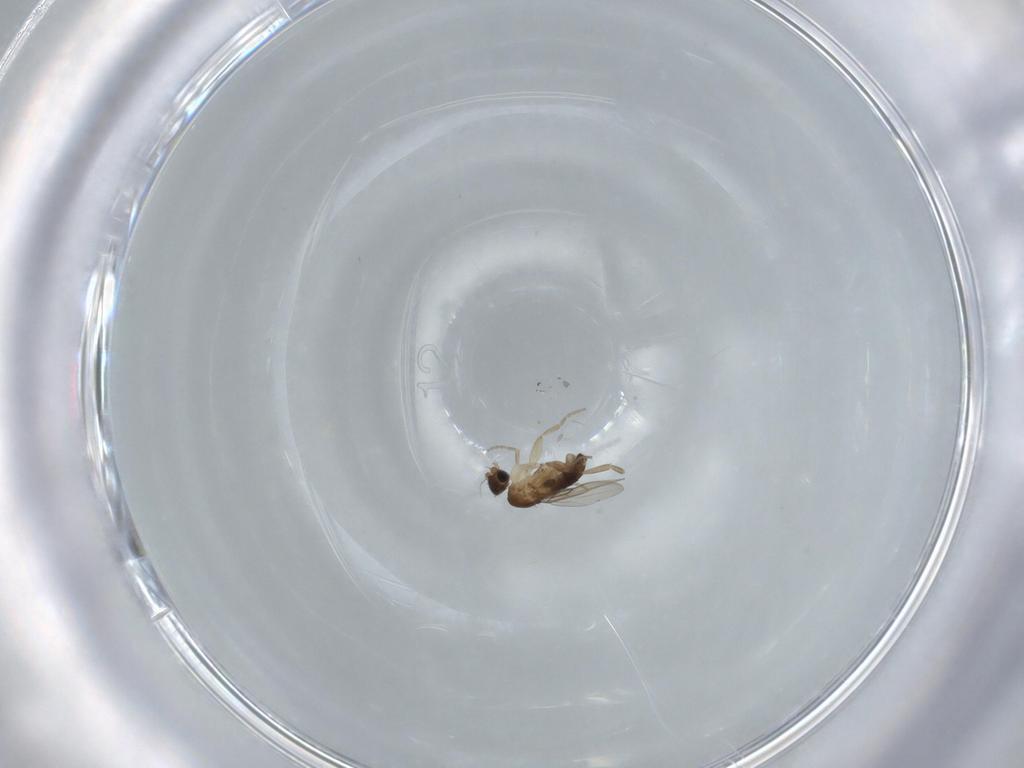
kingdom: Animalia
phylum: Arthropoda
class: Insecta
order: Diptera
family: Phoridae
